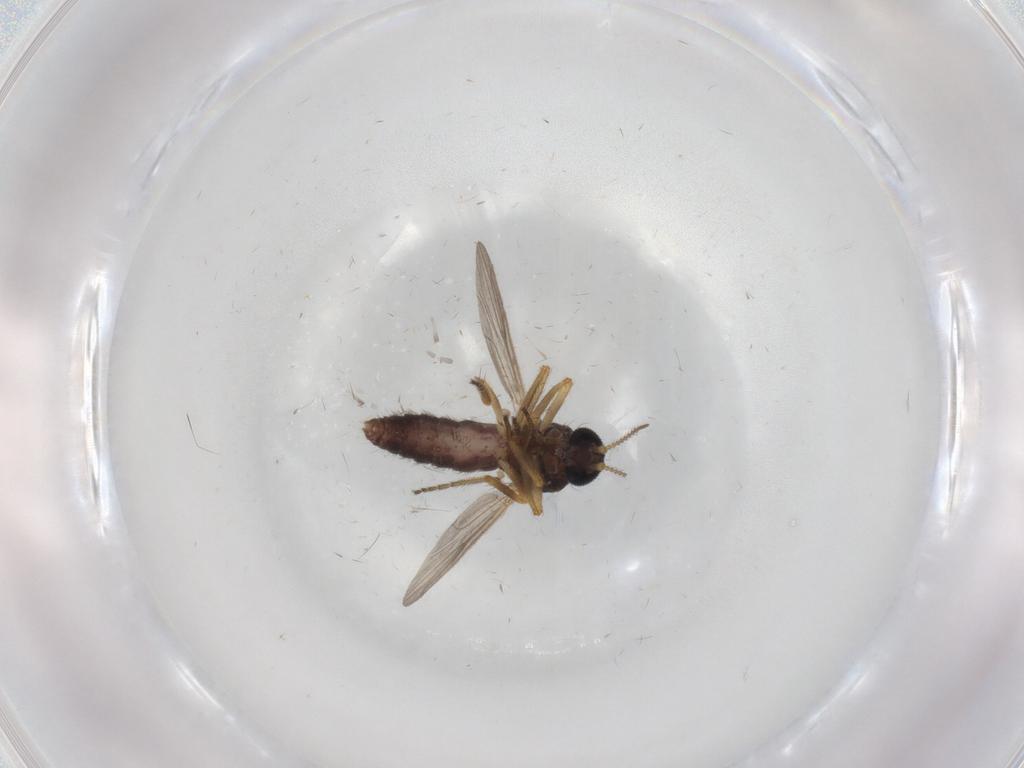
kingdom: Animalia
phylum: Arthropoda
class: Insecta
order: Diptera
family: Ceratopogonidae
